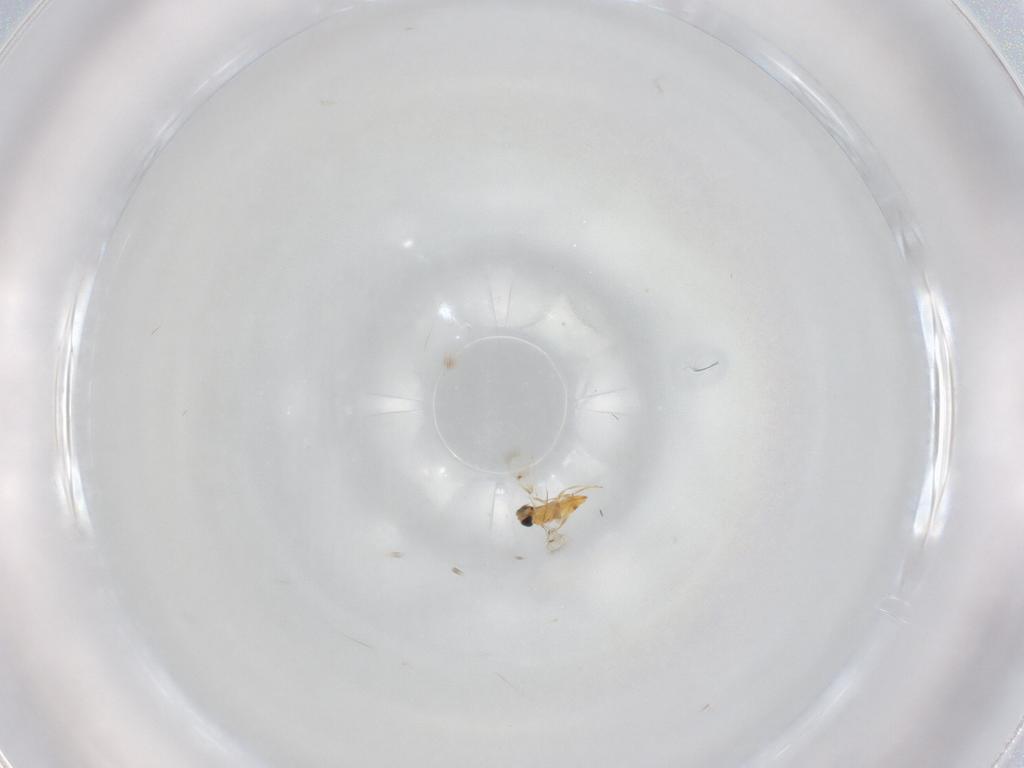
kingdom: Animalia
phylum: Arthropoda
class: Insecta
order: Hymenoptera
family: Trichogrammatidae
